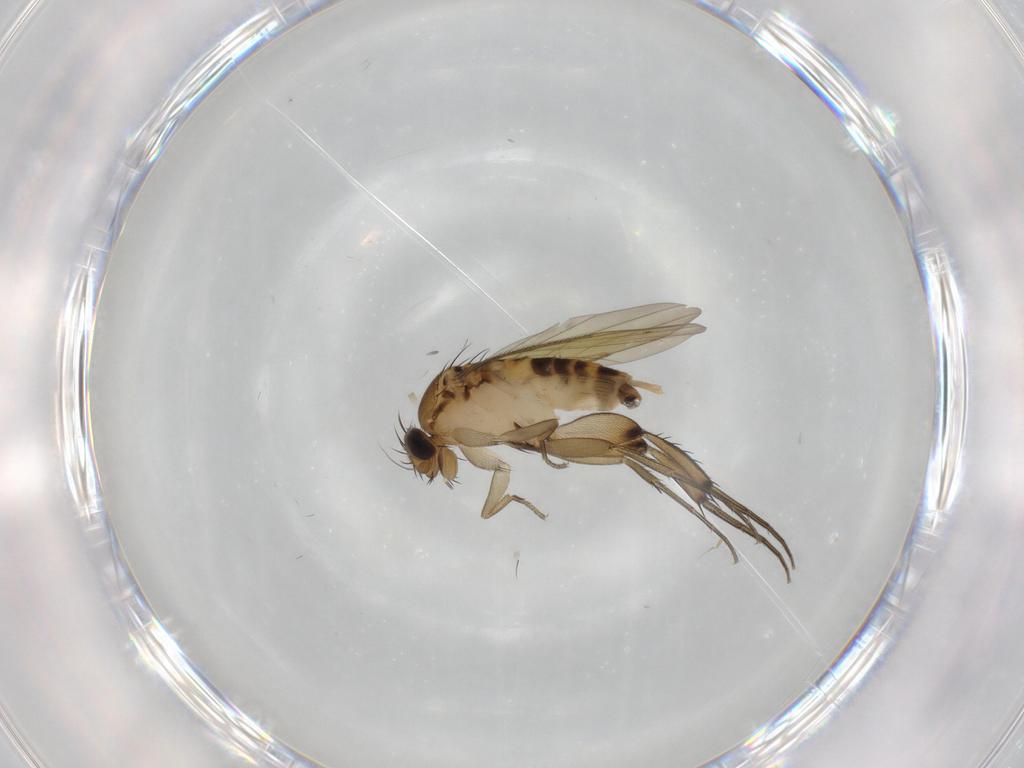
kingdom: Animalia
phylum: Arthropoda
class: Insecta
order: Diptera
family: Phoridae
